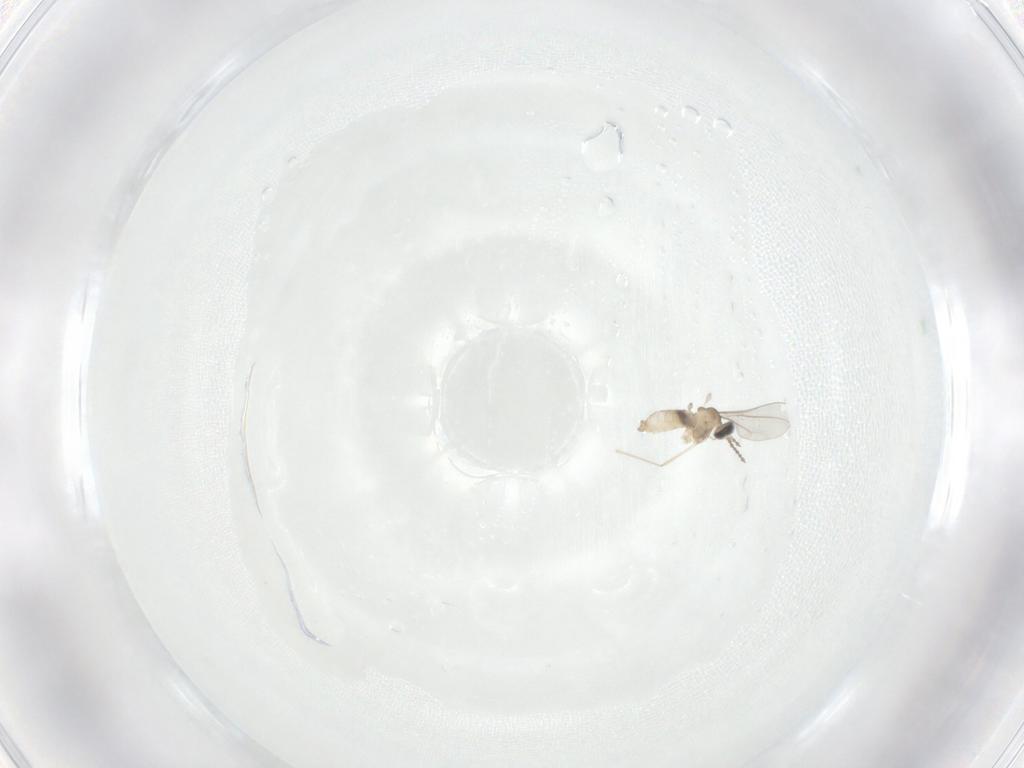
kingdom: Animalia
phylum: Arthropoda
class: Insecta
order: Diptera
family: Cecidomyiidae
